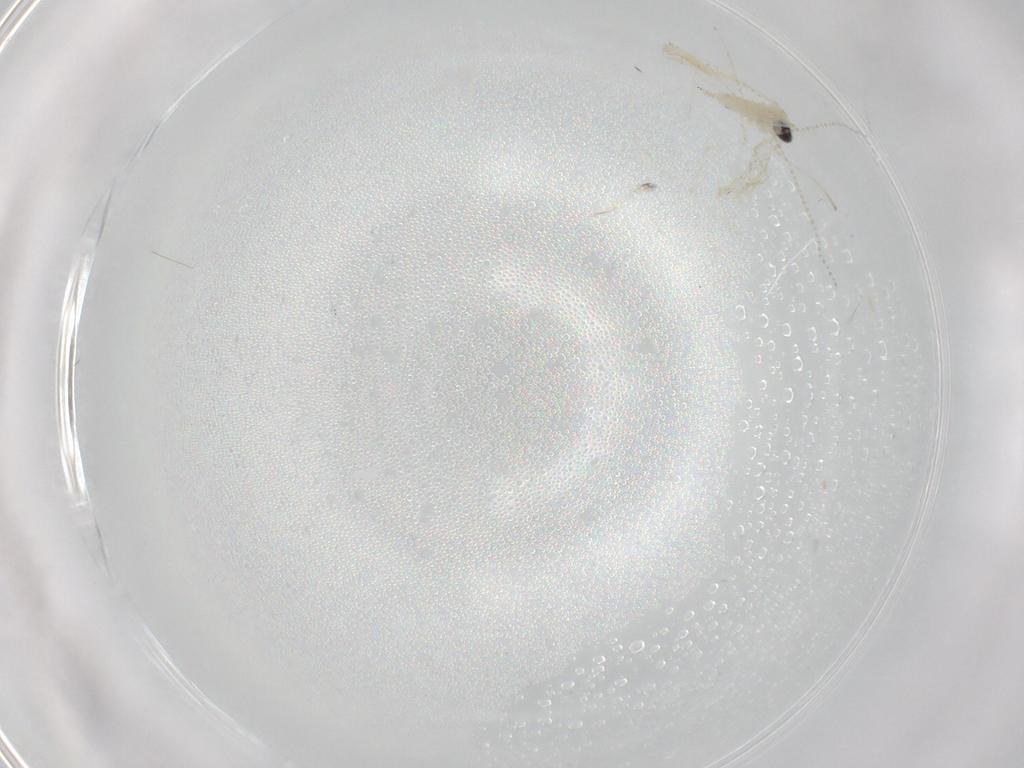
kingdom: Animalia
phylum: Arthropoda
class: Insecta
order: Diptera
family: Cecidomyiidae
